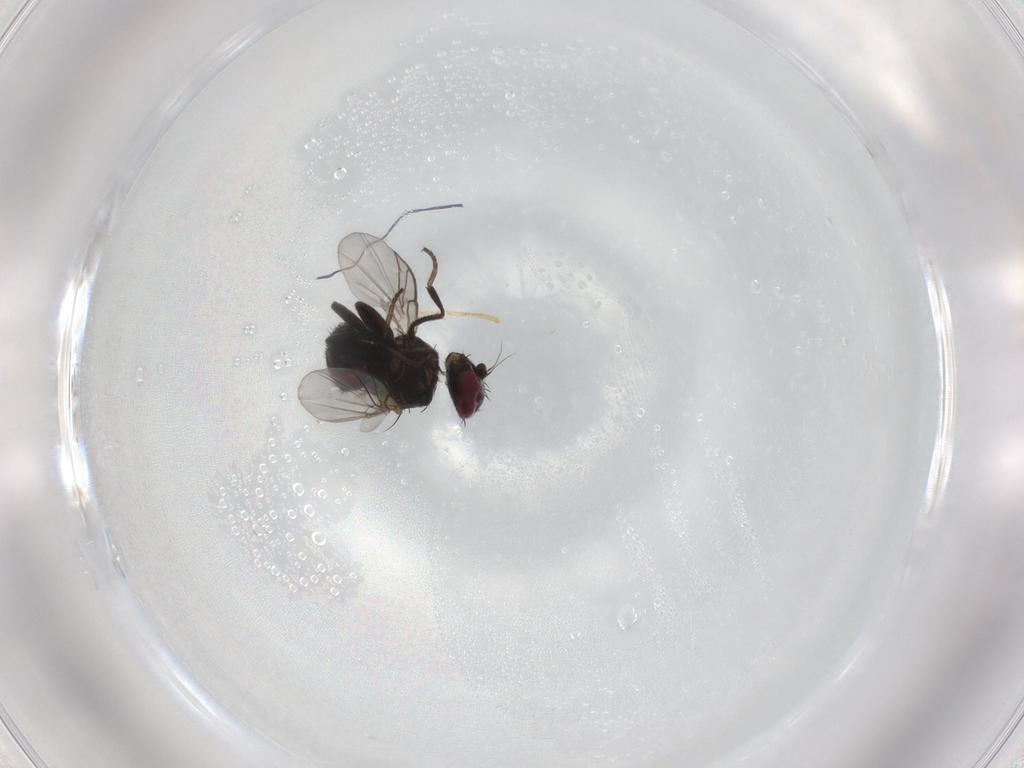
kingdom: Animalia
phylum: Arthropoda
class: Insecta
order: Diptera
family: Agromyzidae
